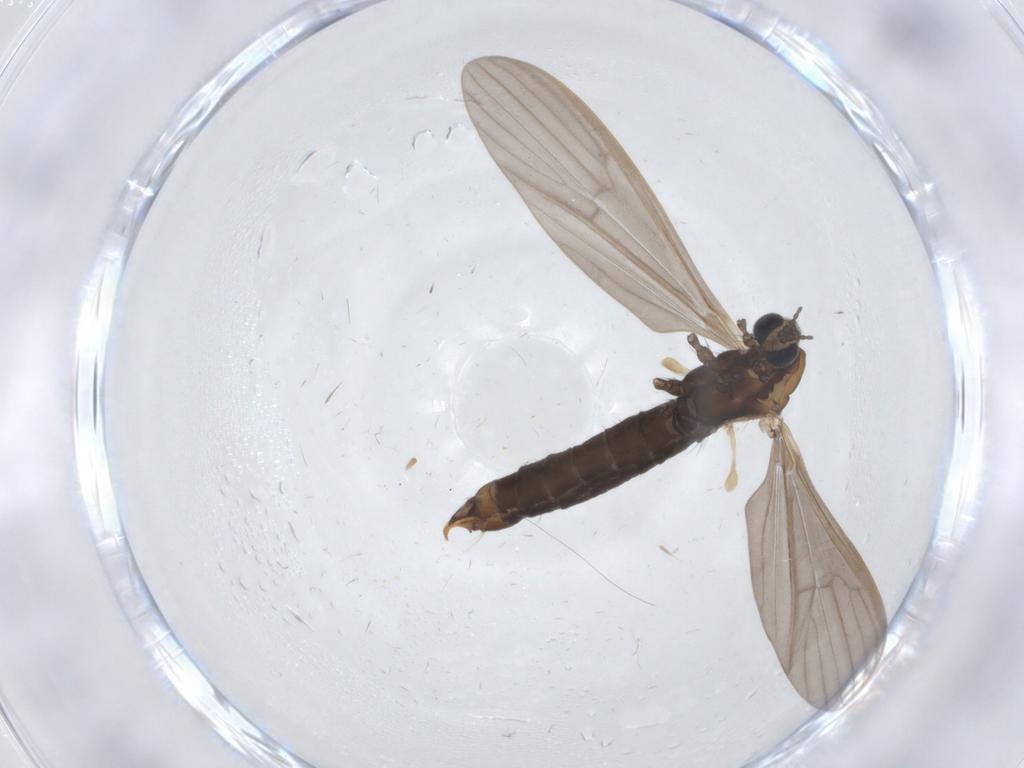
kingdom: Animalia
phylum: Arthropoda
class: Insecta
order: Diptera
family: Limoniidae
